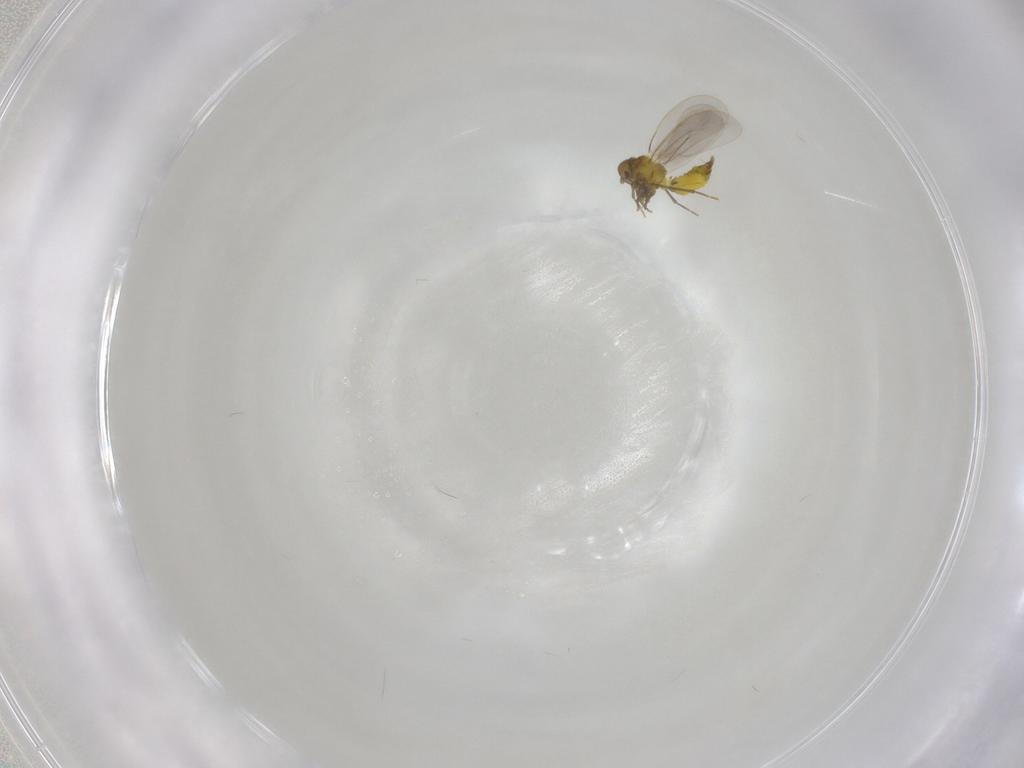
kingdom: Animalia
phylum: Arthropoda
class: Insecta
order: Hemiptera
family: Aleyrodidae
